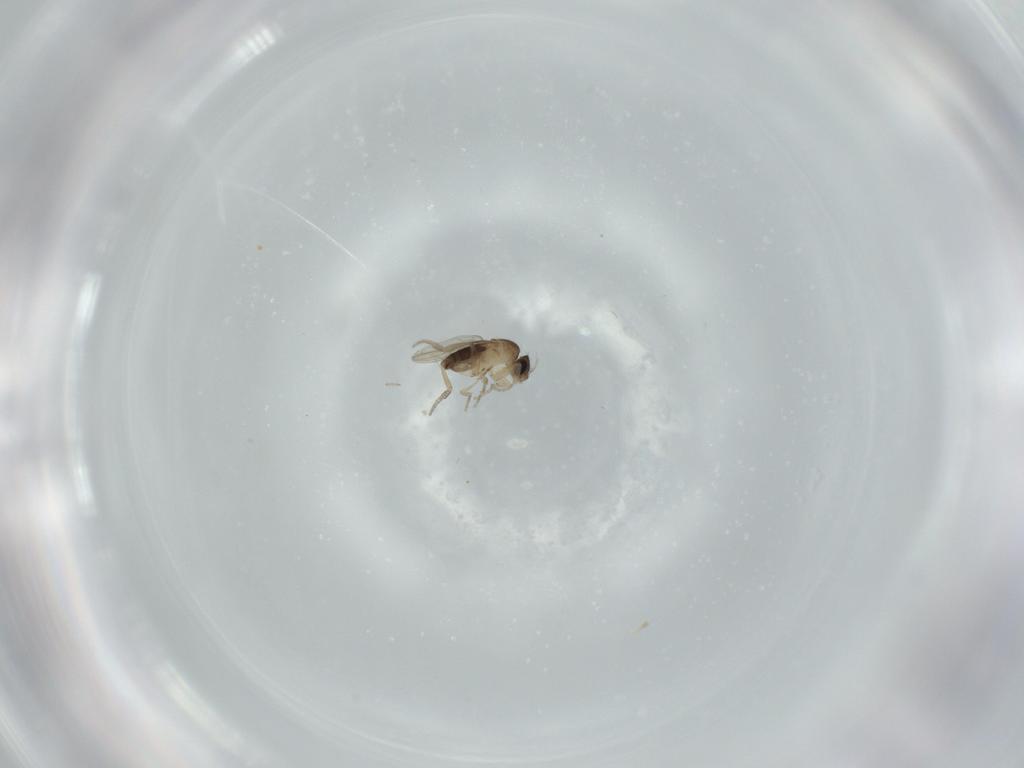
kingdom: Animalia
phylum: Arthropoda
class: Insecta
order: Diptera
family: Phoridae
